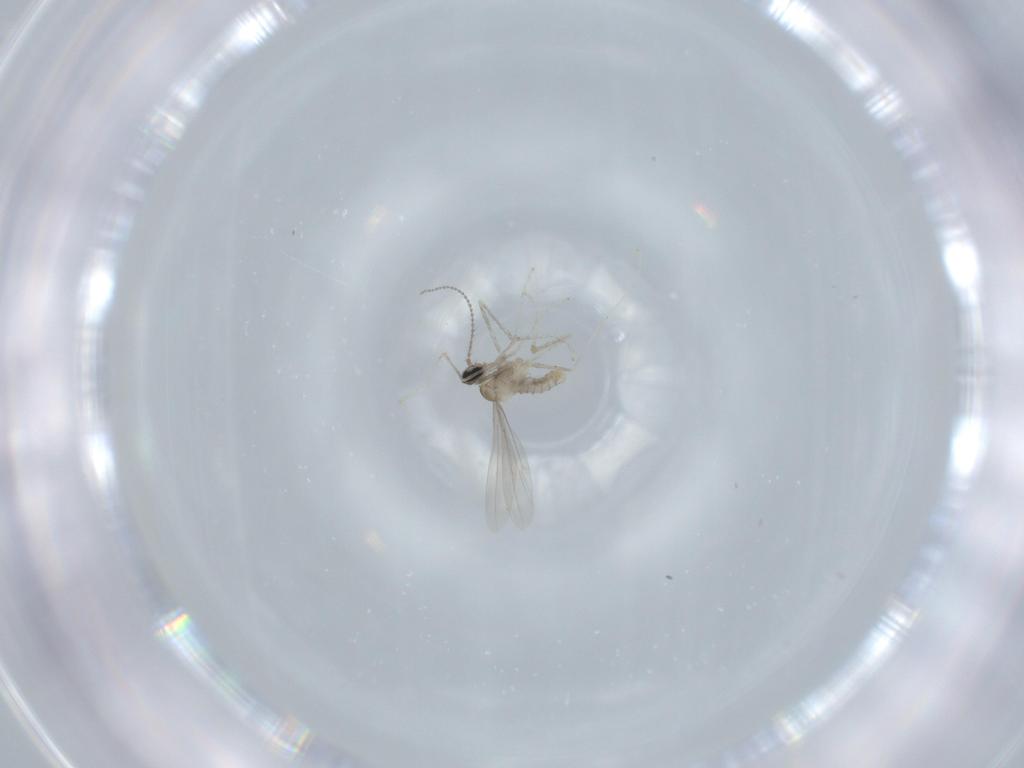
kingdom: Animalia
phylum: Arthropoda
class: Insecta
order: Diptera
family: Cecidomyiidae
